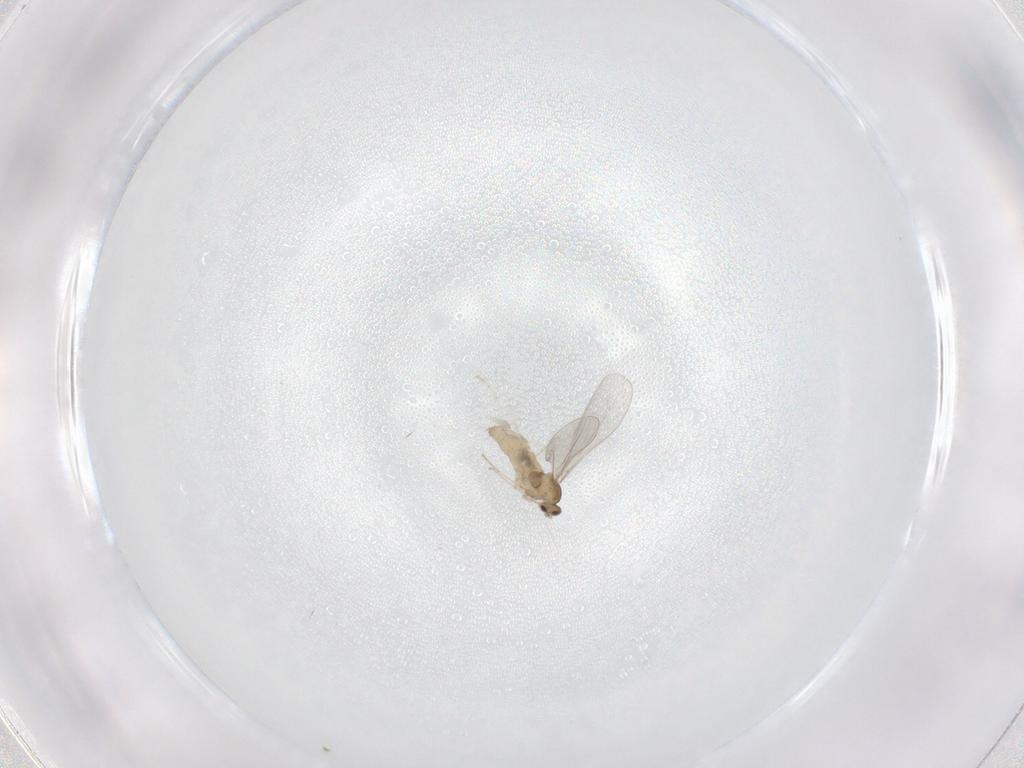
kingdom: Animalia
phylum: Arthropoda
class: Insecta
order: Diptera
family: Cecidomyiidae
